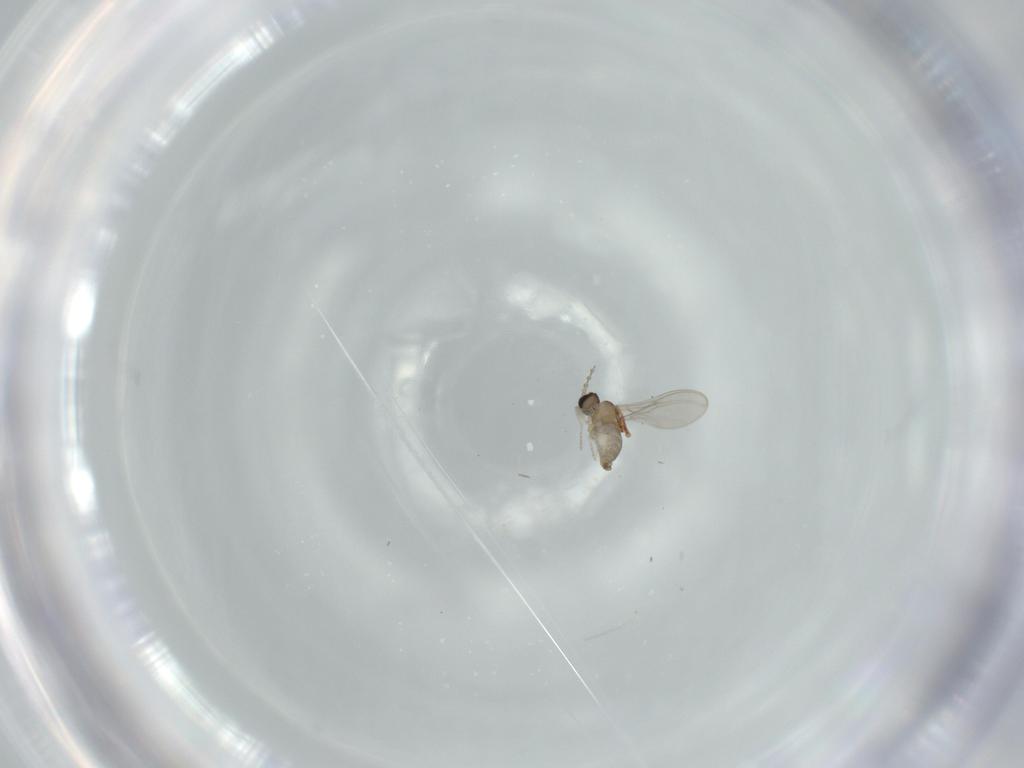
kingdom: Animalia
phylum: Arthropoda
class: Insecta
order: Diptera
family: Cecidomyiidae
